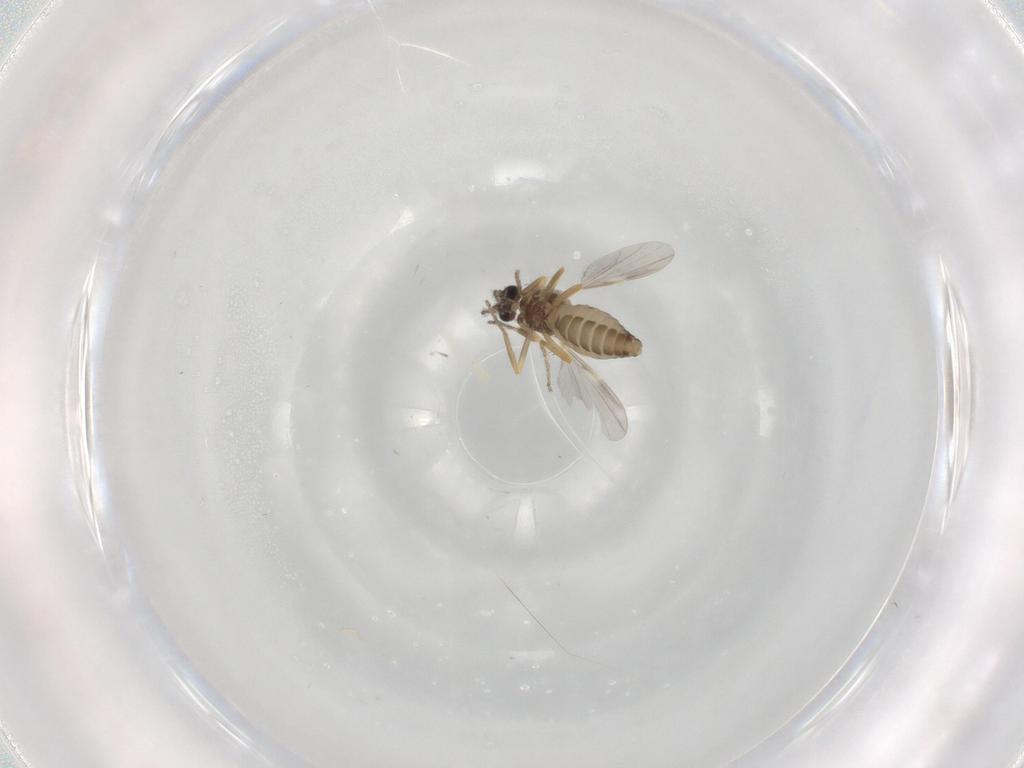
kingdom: Animalia
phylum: Arthropoda
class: Insecta
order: Diptera
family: Ceratopogonidae
